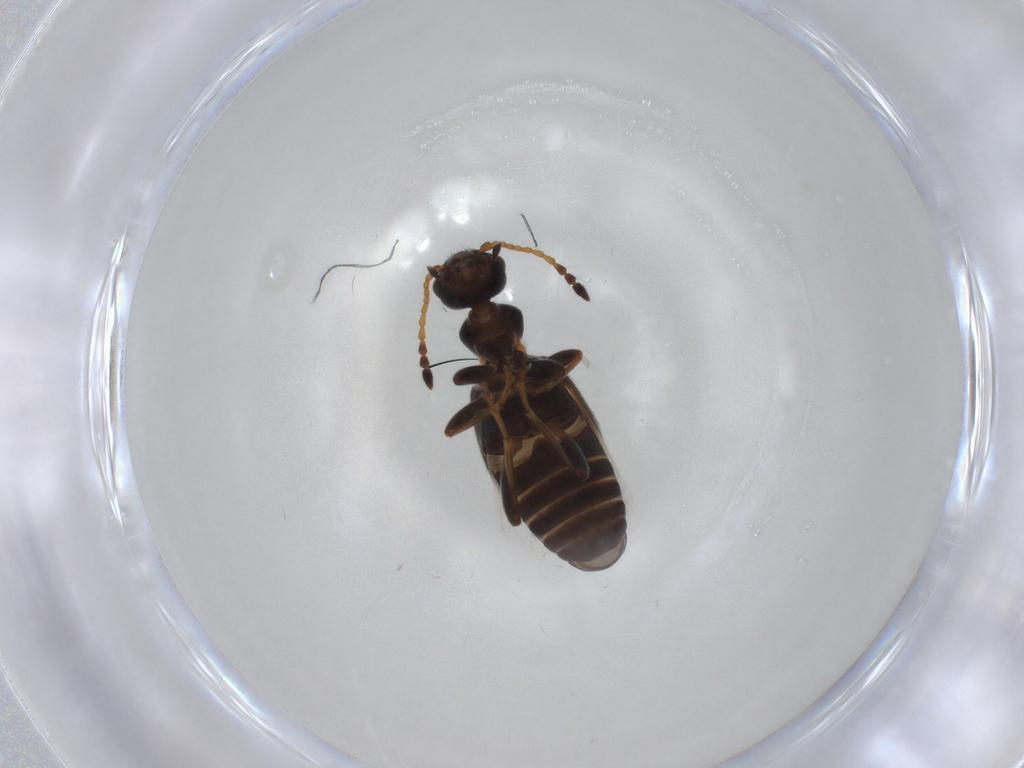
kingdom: Animalia
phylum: Arthropoda
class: Insecta
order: Coleoptera
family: Anthicidae
